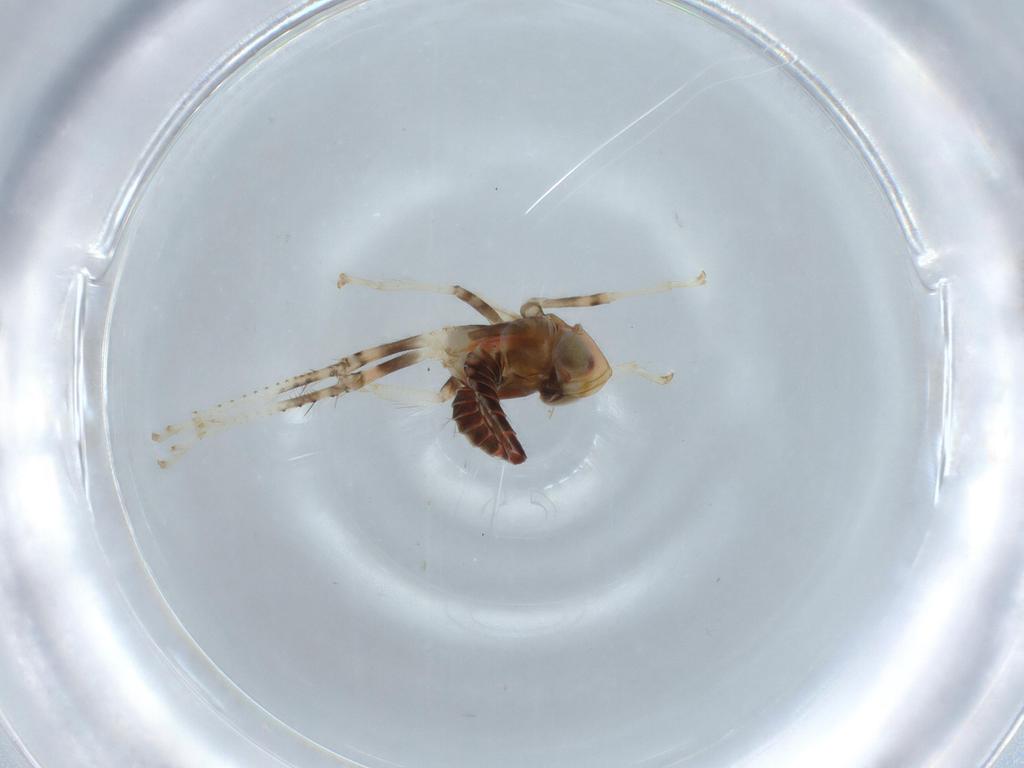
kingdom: Animalia
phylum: Arthropoda
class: Insecta
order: Hemiptera
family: Cicadellidae
